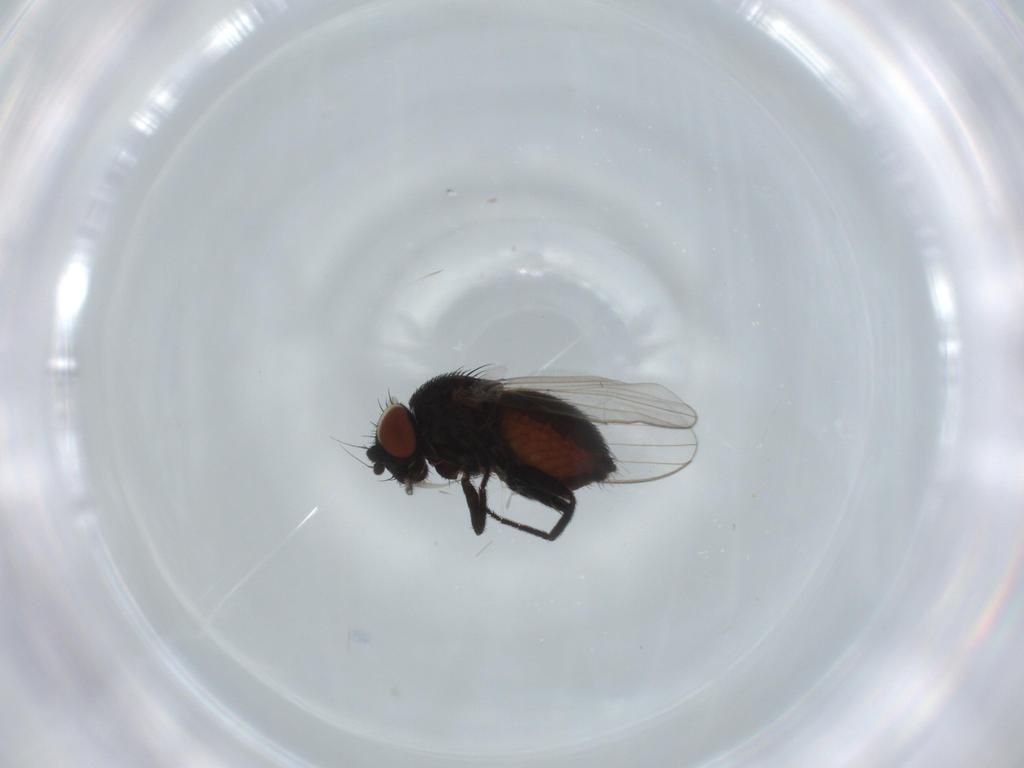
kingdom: Animalia
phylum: Arthropoda
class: Insecta
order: Diptera
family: Milichiidae
